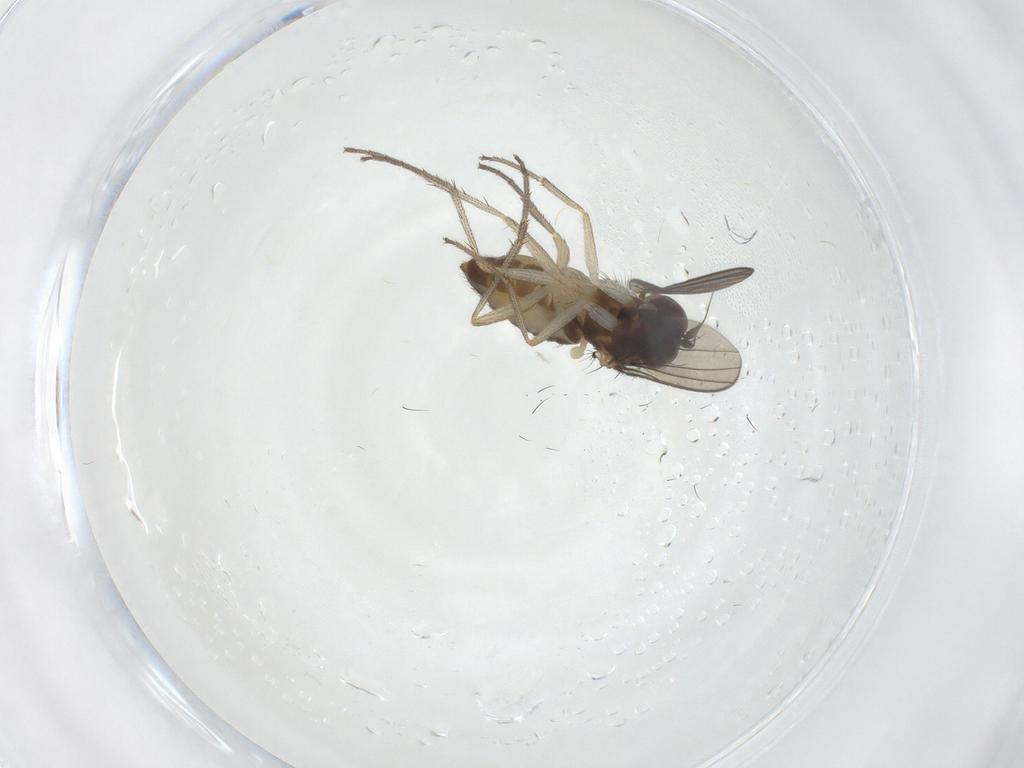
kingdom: Animalia
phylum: Arthropoda
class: Insecta
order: Diptera
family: Dolichopodidae
